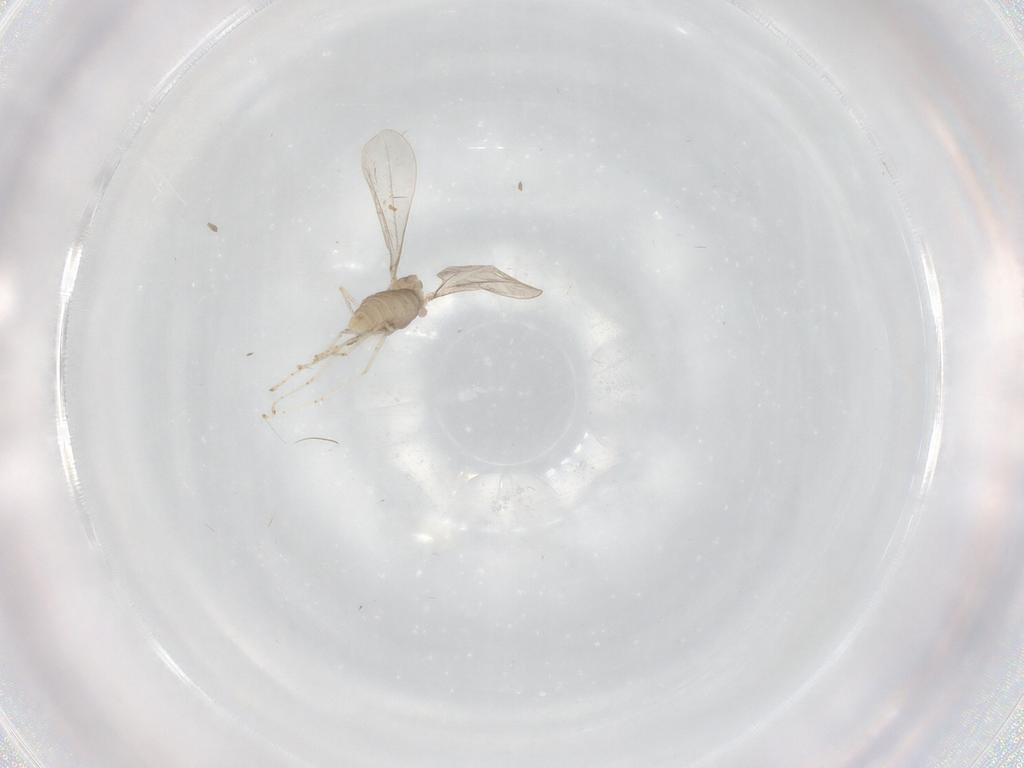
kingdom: Animalia
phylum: Arthropoda
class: Insecta
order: Diptera
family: Cecidomyiidae
